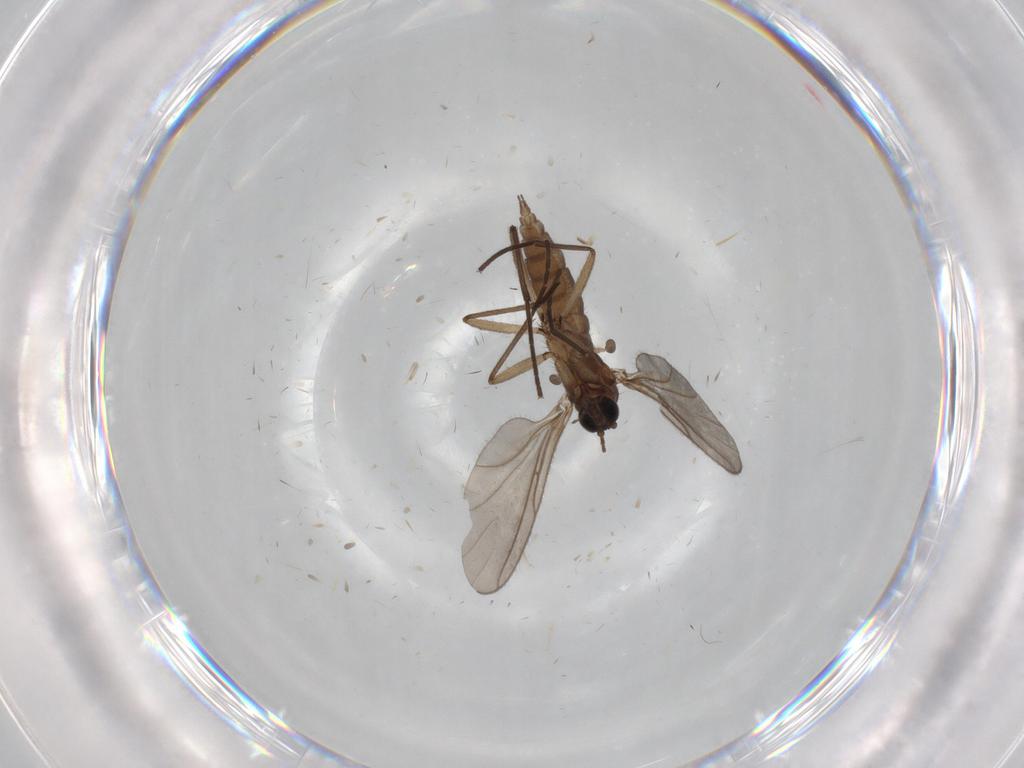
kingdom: Animalia
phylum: Arthropoda
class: Insecta
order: Diptera
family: Sciaridae
